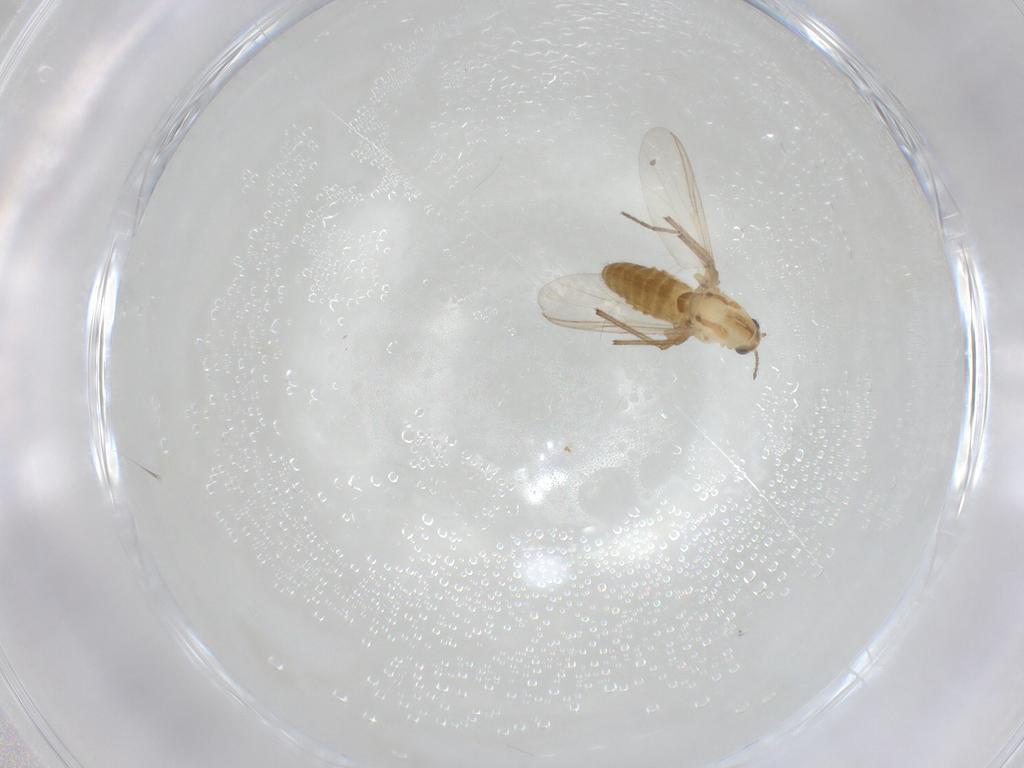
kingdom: Animalia
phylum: Arthropoda
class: Insecta
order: Diptera
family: Chironomidae
